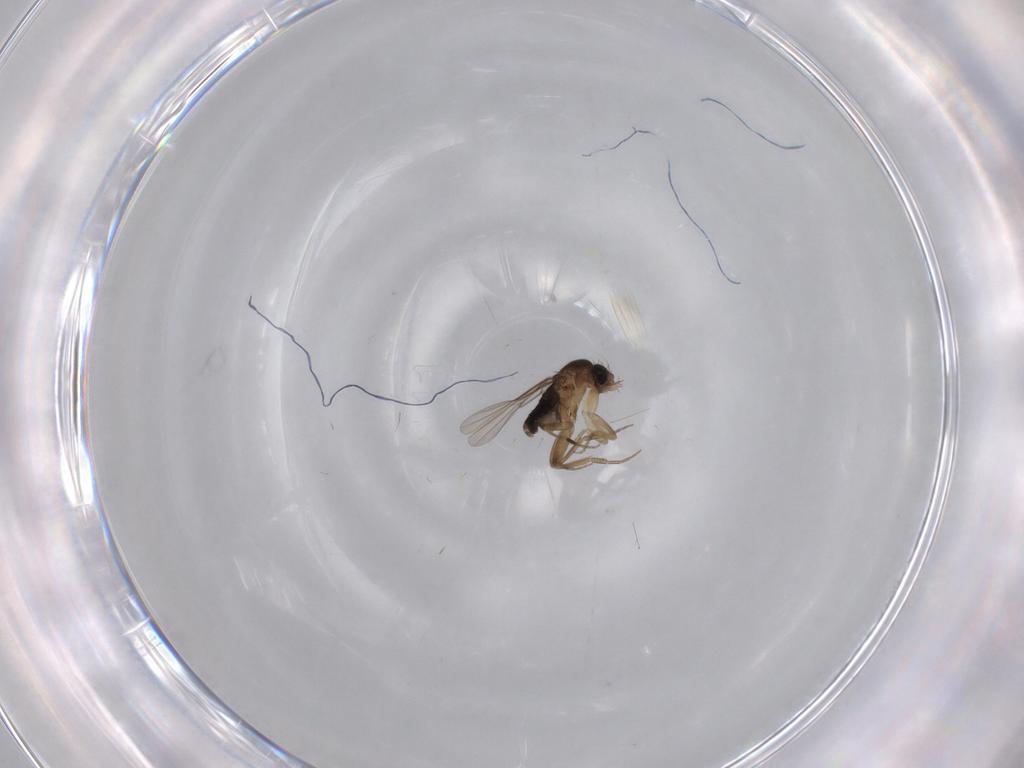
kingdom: Animalia
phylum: Arthropoda
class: Insecta
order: Diptera
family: Phoridae
